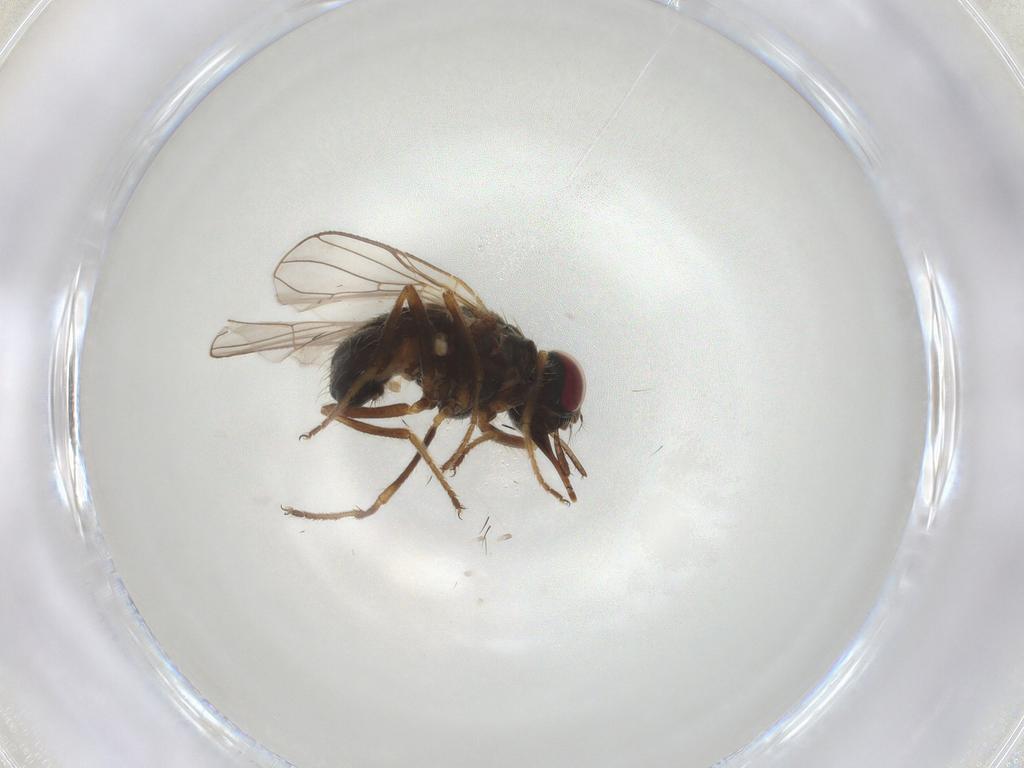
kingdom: Animalia
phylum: Arthropoda
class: Insecta
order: Diptera
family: Muscidae
